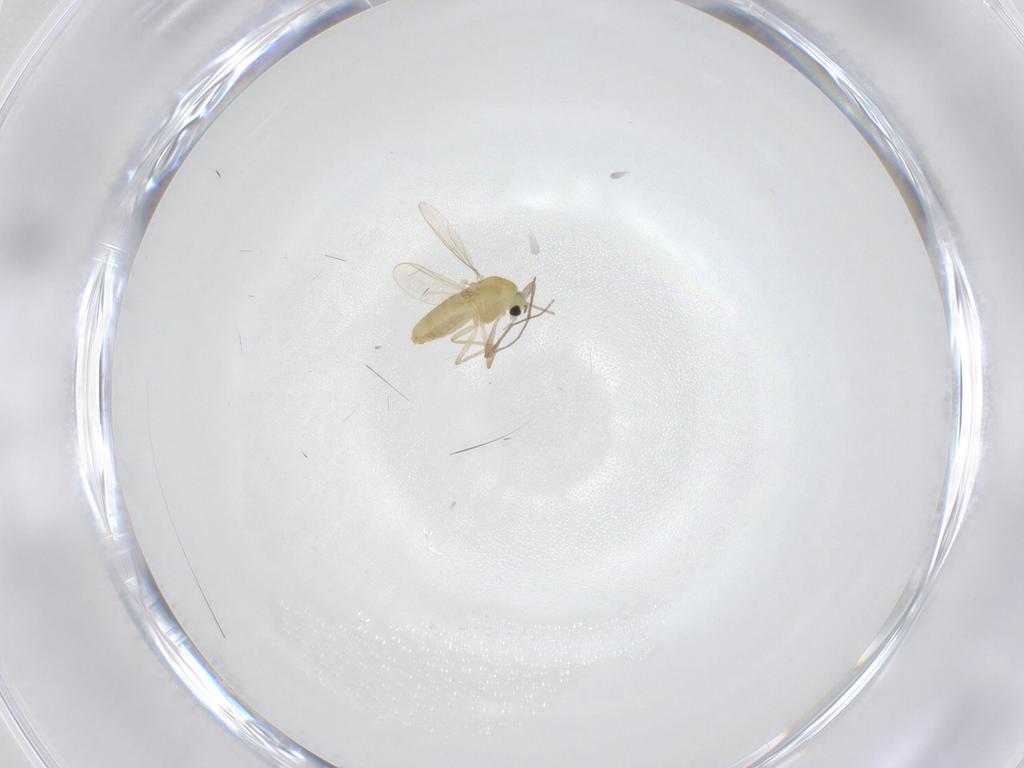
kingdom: Animalia
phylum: Arthropoda
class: Insecta
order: Diptera
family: Chironomidae
